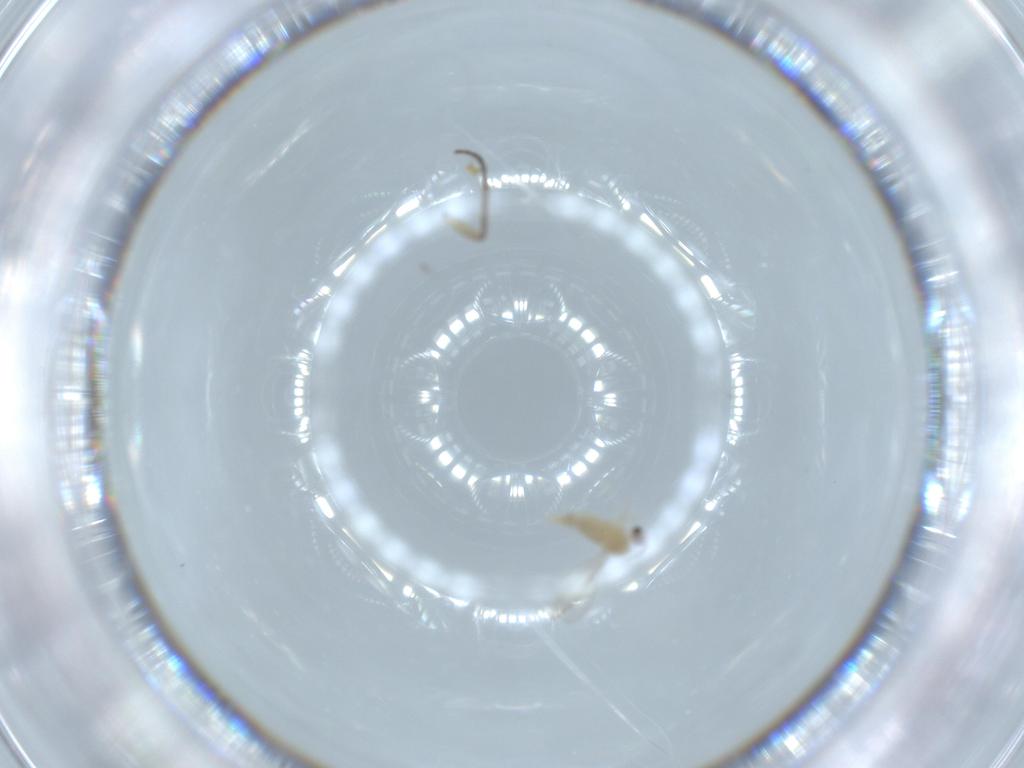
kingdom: Animalia
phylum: Arthropoda
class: Insecta
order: Diptera
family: Cecidomyiidae
